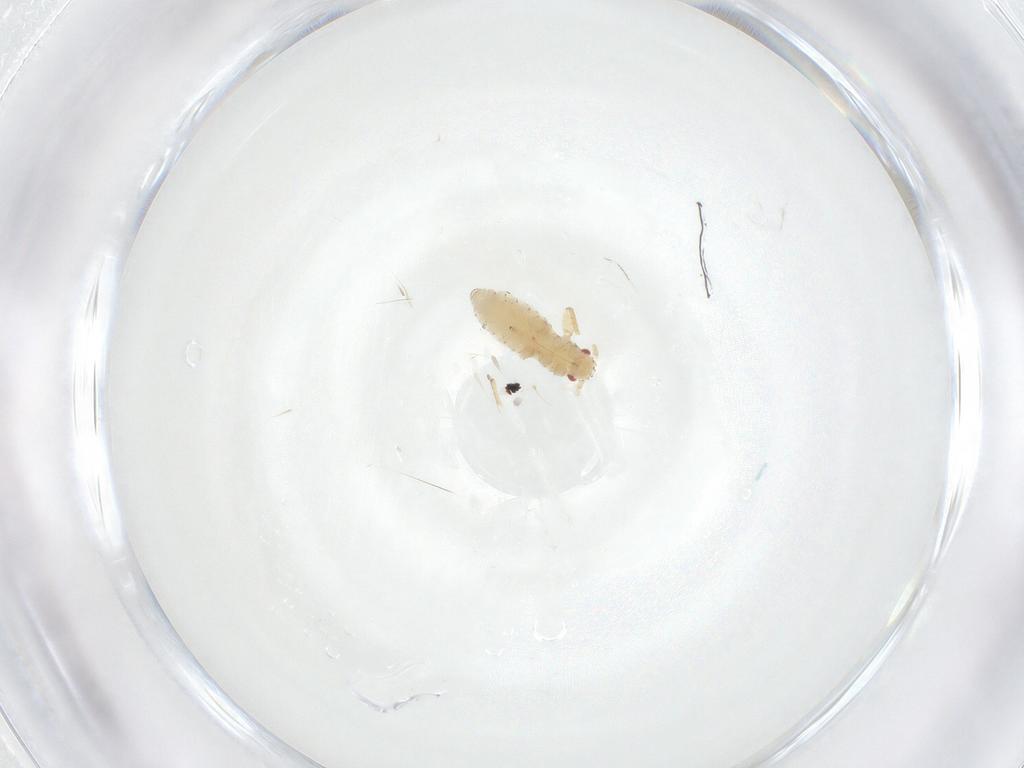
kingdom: Animalia
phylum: Arthropoda
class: Insecta
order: Hemiptera
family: Aphididae
